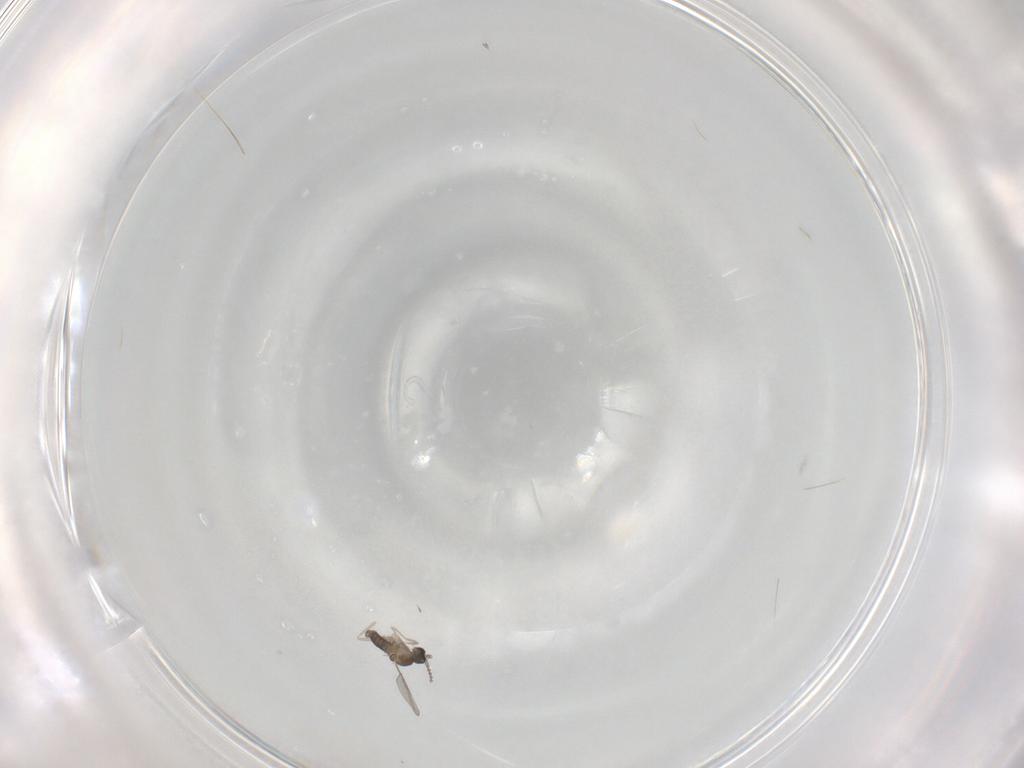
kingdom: Animalia
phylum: Arthropoda
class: Insecta
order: Diptera
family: Cecidomyiidae
